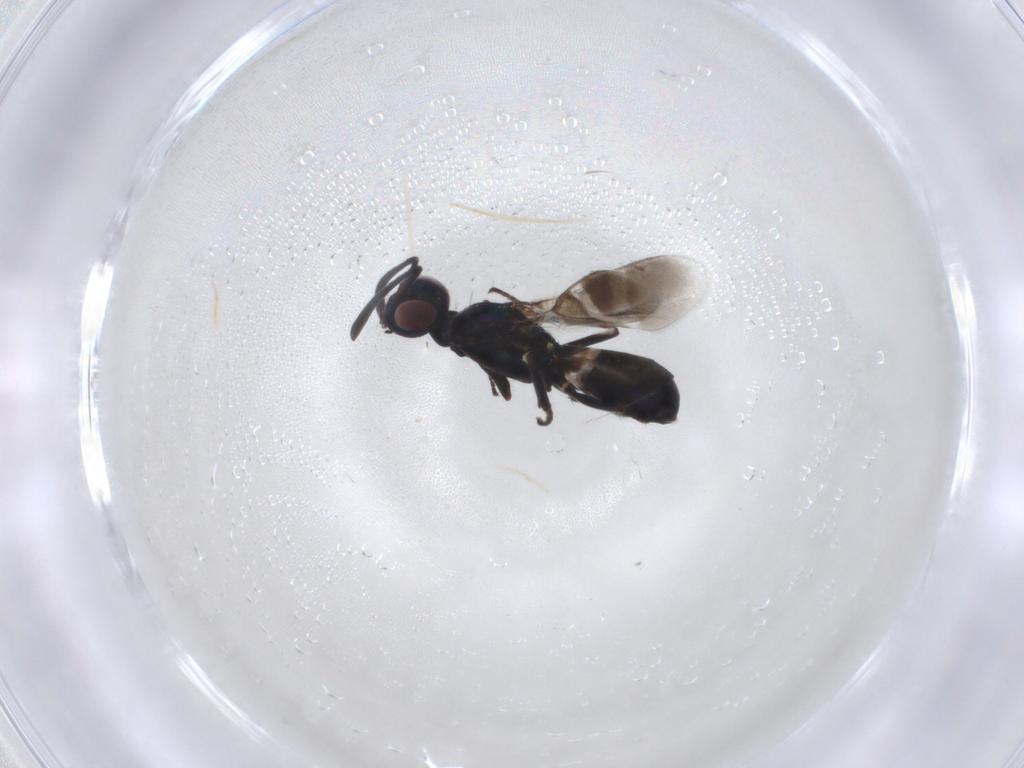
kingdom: Animalia
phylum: Arthropoda
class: Insecta
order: Hymenoptera
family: Eupelmidae
